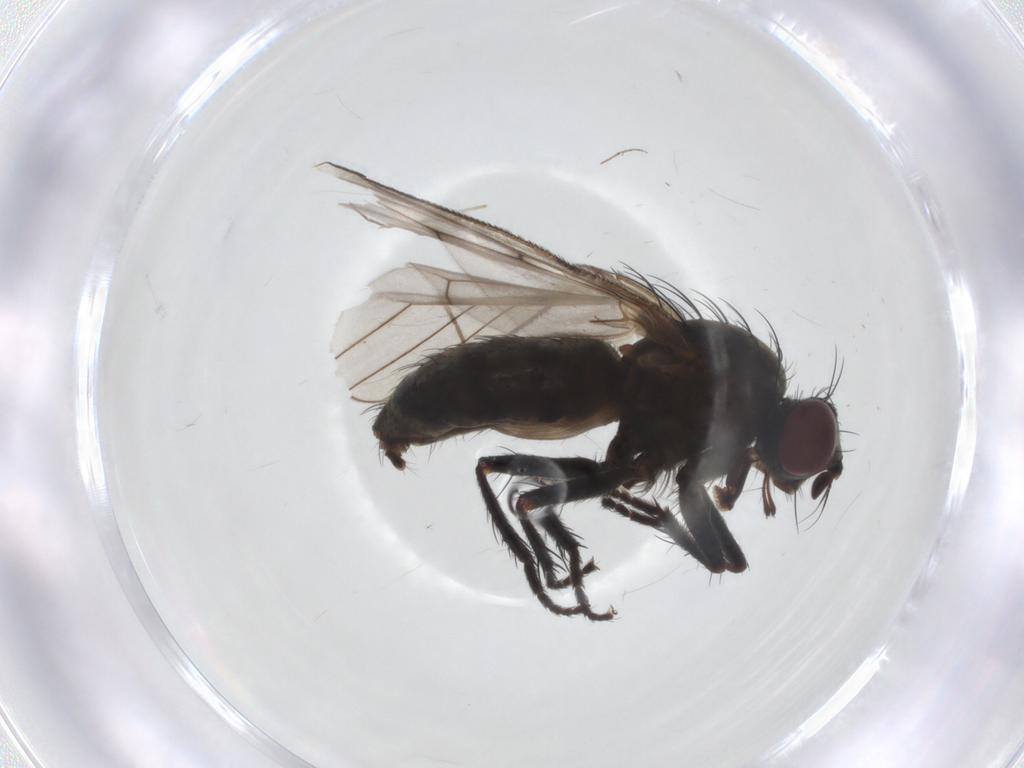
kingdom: Animalia
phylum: Arthropoda
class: Insecta
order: Diptera
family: Muscidae
